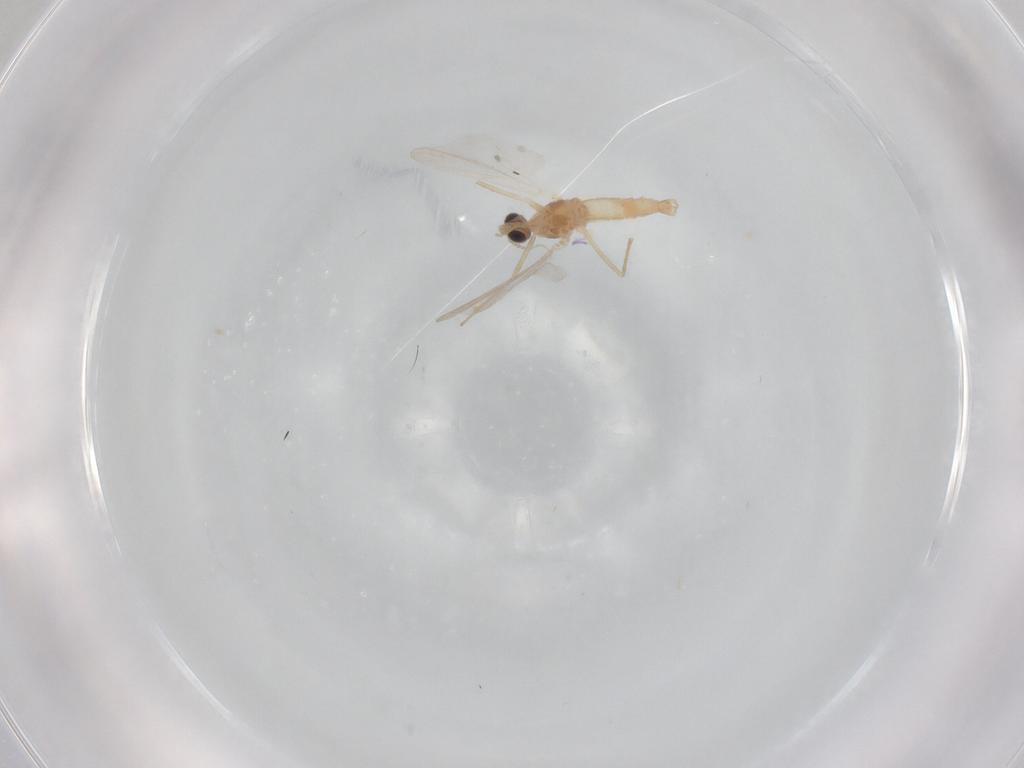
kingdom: Animalia
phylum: Arthropoda
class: Insecta
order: Diptera
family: Cecidomyiidae
